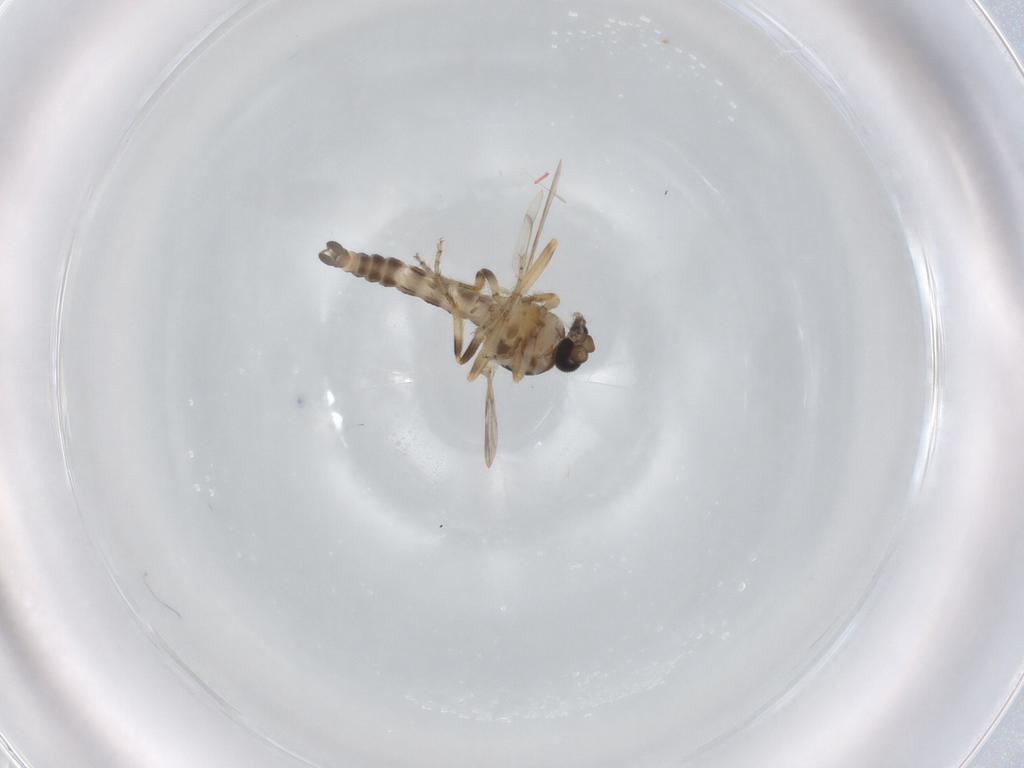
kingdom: Animalia
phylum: Arthropoda
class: Insecta
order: Diptera
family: Ceratopogonidae
